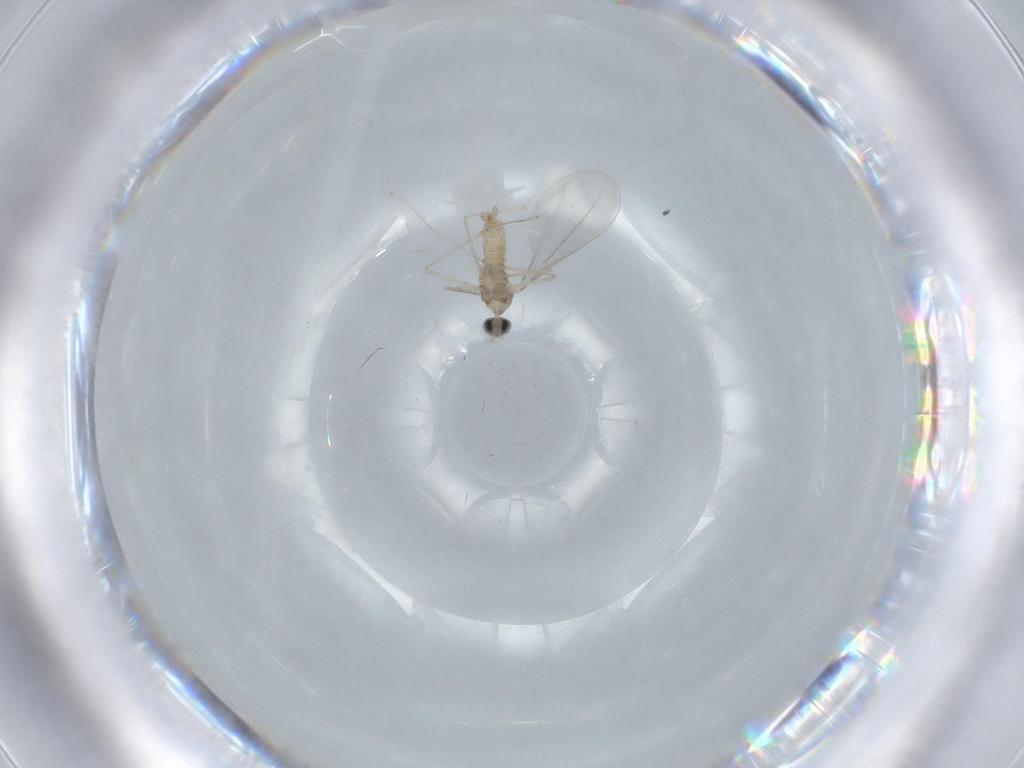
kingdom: Animalia
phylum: Arthropoda
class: Insecta
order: Diptera
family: Cecidomyiidae
